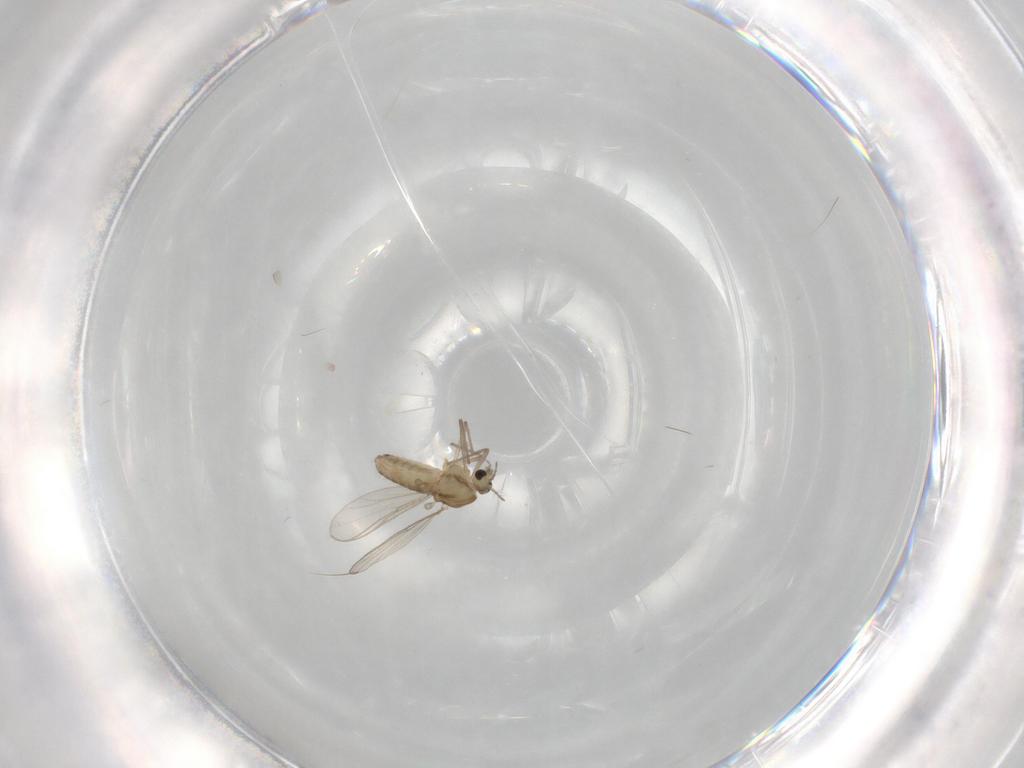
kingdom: Animalia
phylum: Arthropoda
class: Insecta
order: Diptera
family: Chironomidae
